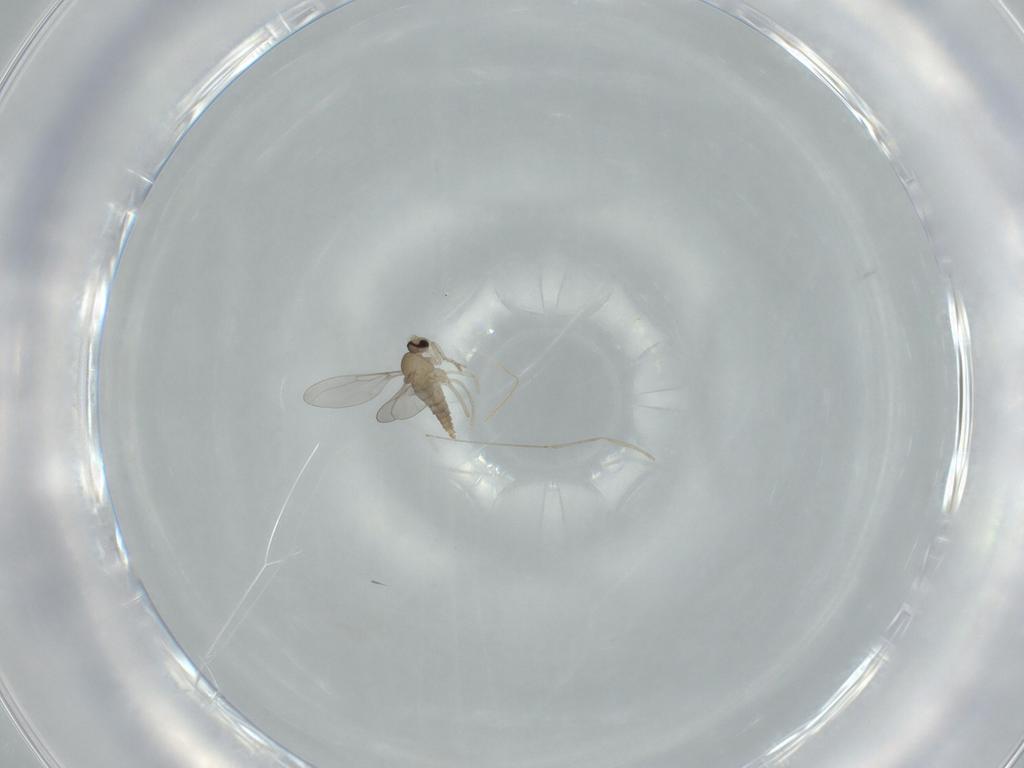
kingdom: Animalia
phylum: Arthropoda
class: Insecta
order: Diptera
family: Cecidomyiidae
